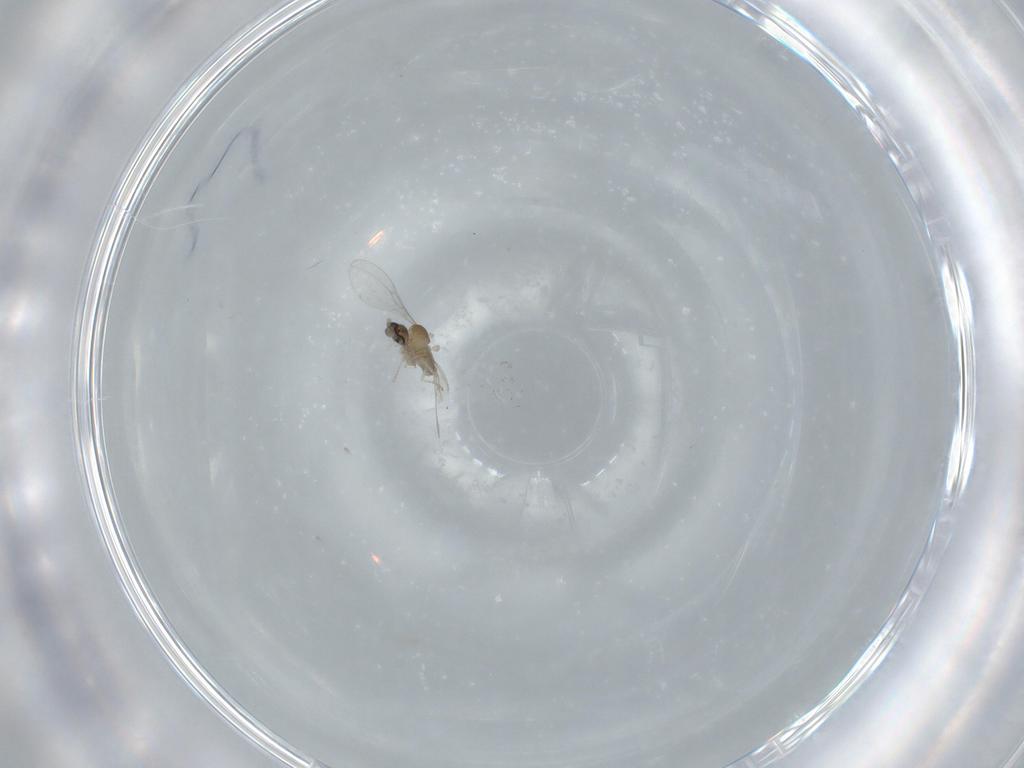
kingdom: Animalia
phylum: Arthropoda
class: Insecta
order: Diptera
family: Cecidomyiidae
